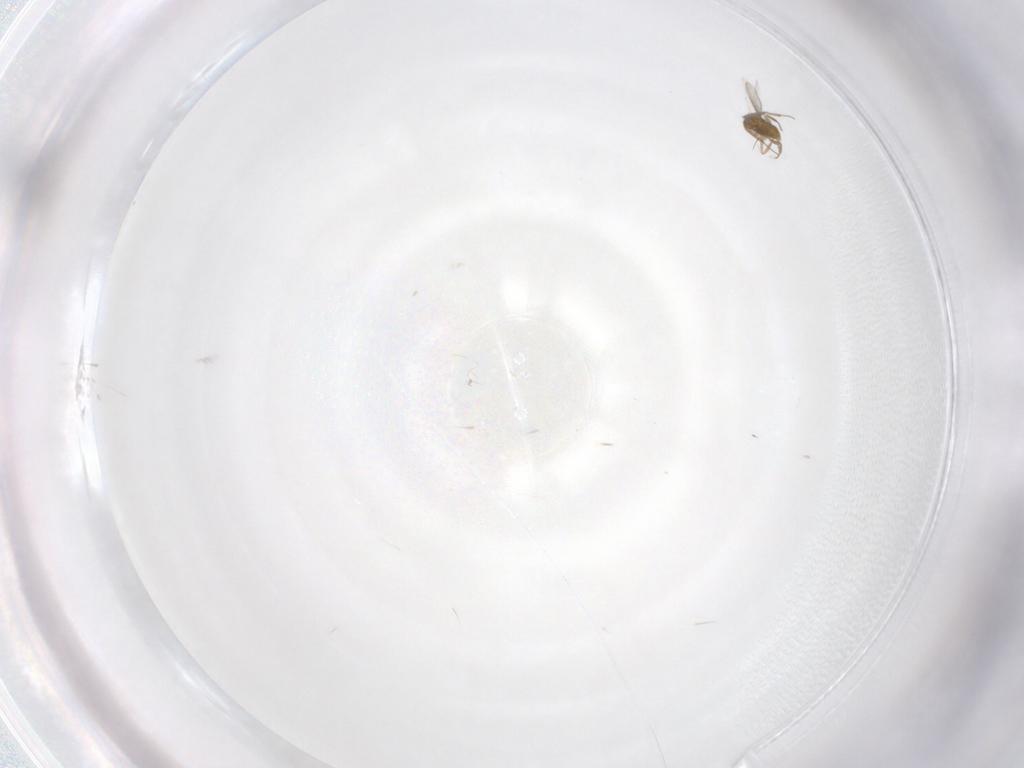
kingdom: Animalia
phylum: Arthropoda
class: Insecta
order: Hymenoptera
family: Aphelinidae
